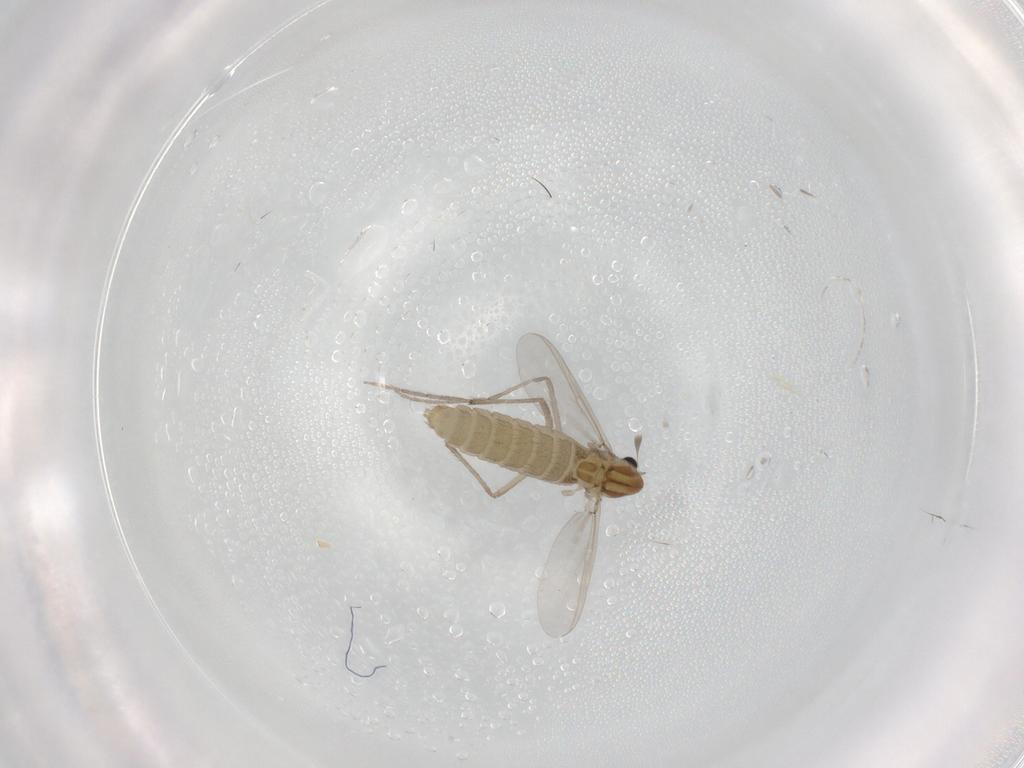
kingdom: Animalia
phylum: Arthropoda
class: Insecta
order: Diptera
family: Chironomidae
